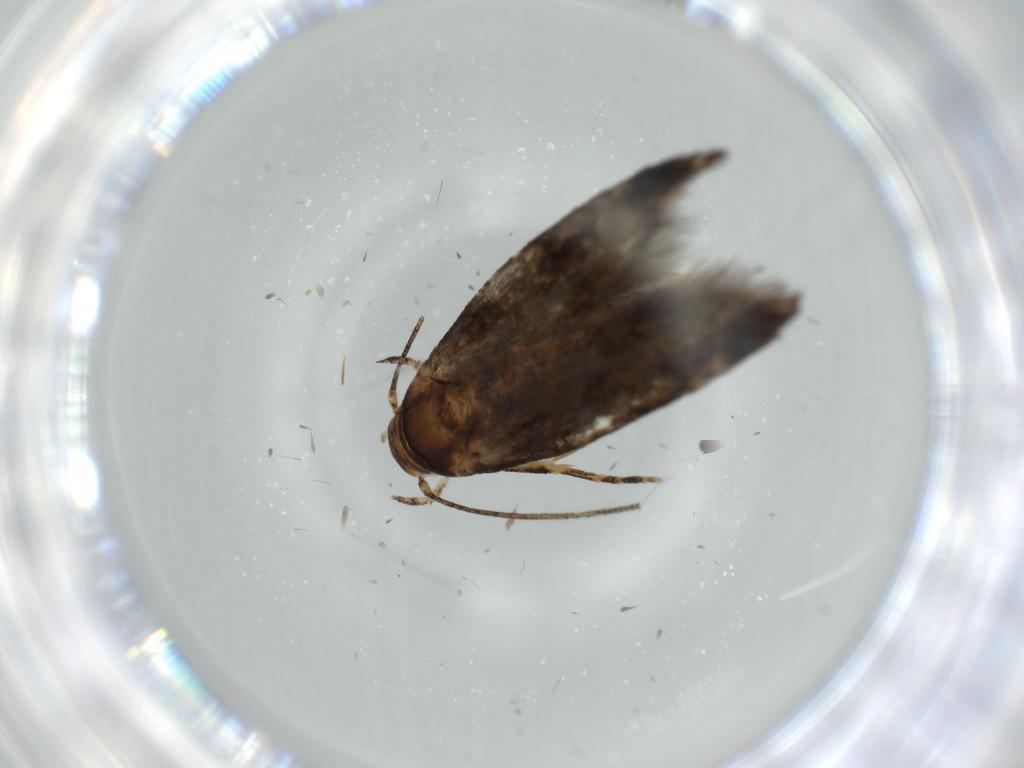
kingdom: Animalia
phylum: Arthropoda
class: Insecta
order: Lepidoptera
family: Momphidae
